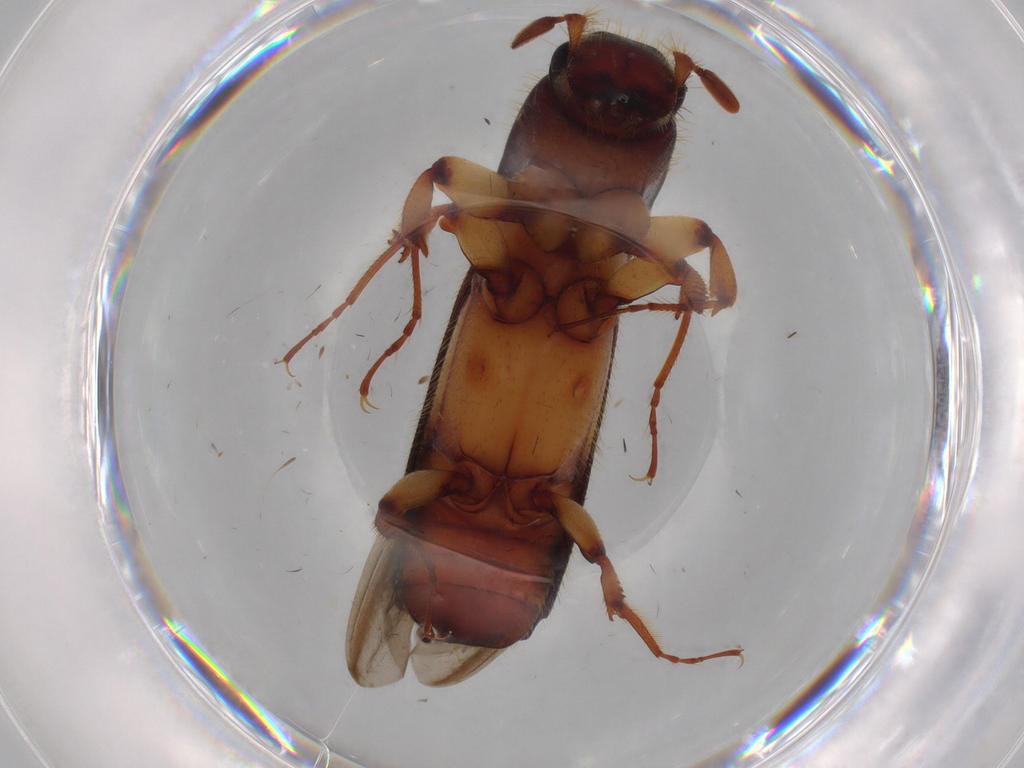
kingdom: Animalia
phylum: Arthropoda
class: Insecta
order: Coleoptera
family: Curculionidae
